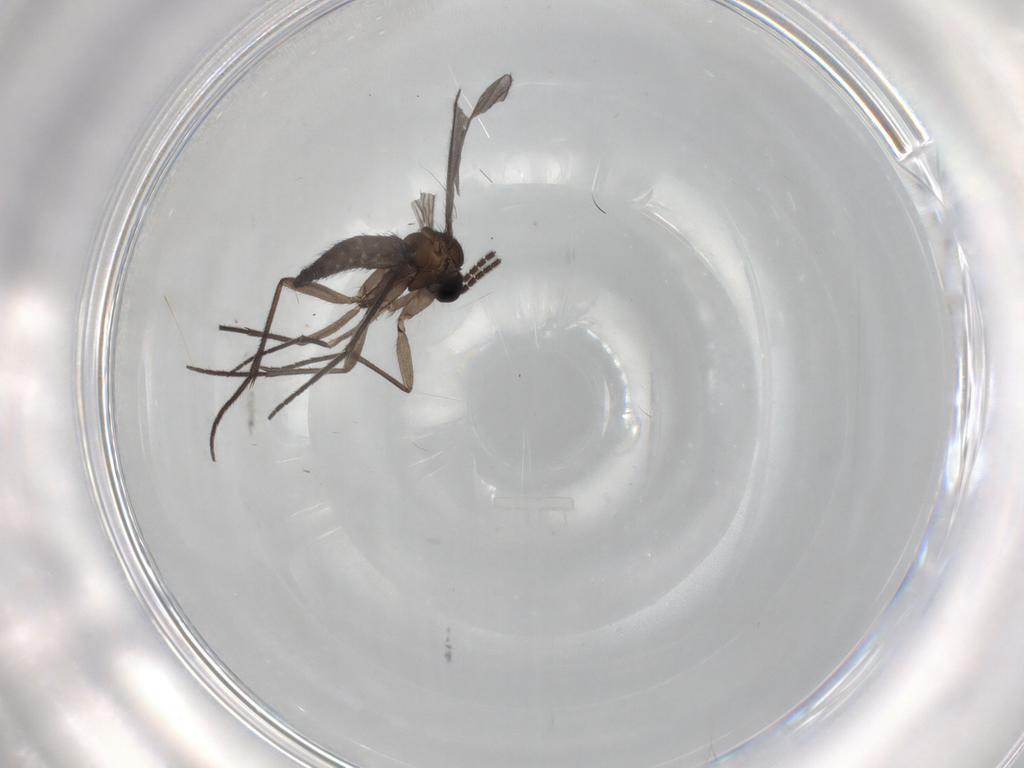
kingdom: Animalia
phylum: Arthropoda
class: Insecta
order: Diptera
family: Sciaridae
